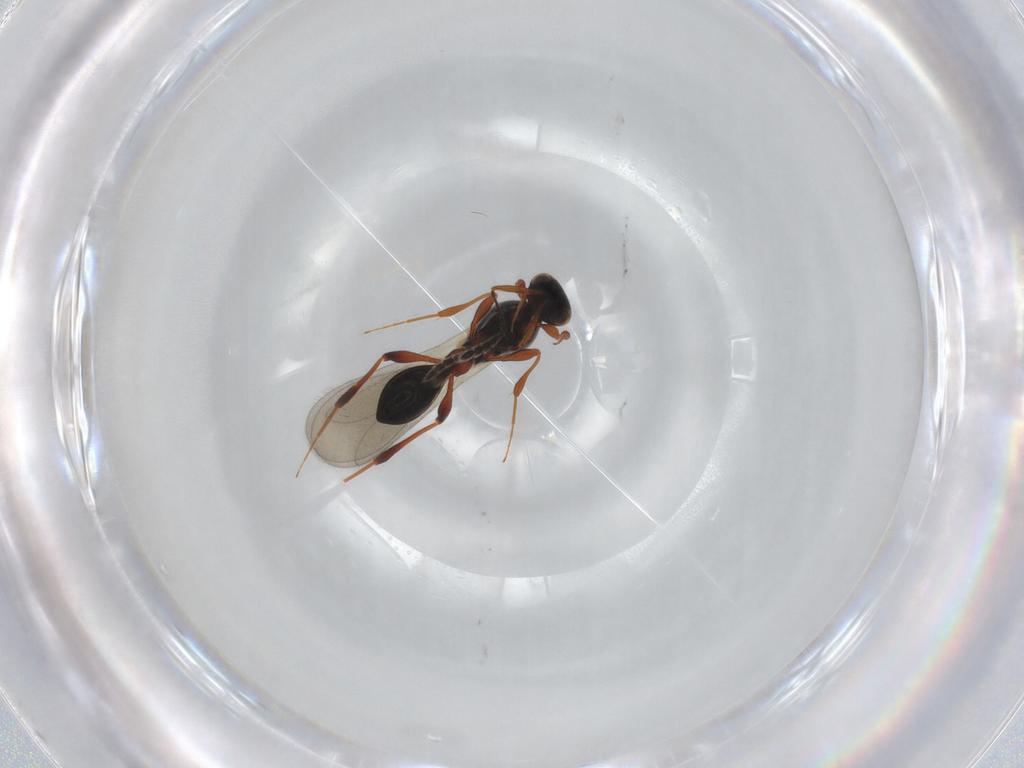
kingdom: Animalia
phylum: Arthropoda
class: Insecta
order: Hymenoptera
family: Platygastridae
